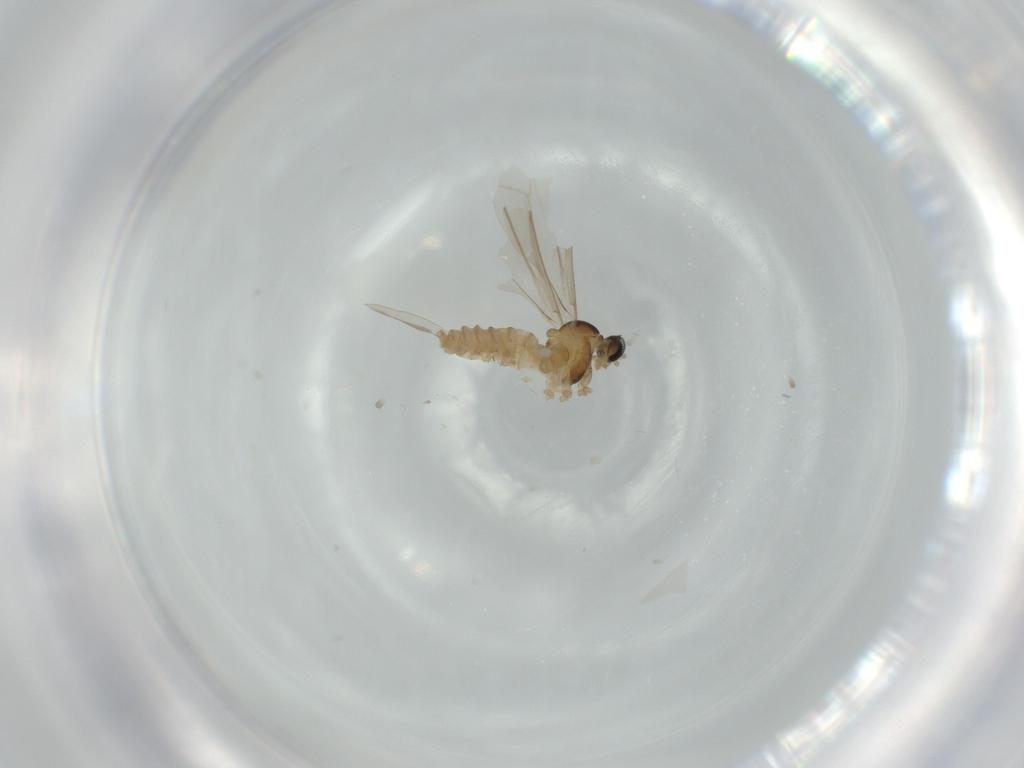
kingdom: Animalia
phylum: Arthropoda
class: Insecta
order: Diptera
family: Cecidomyiidae
